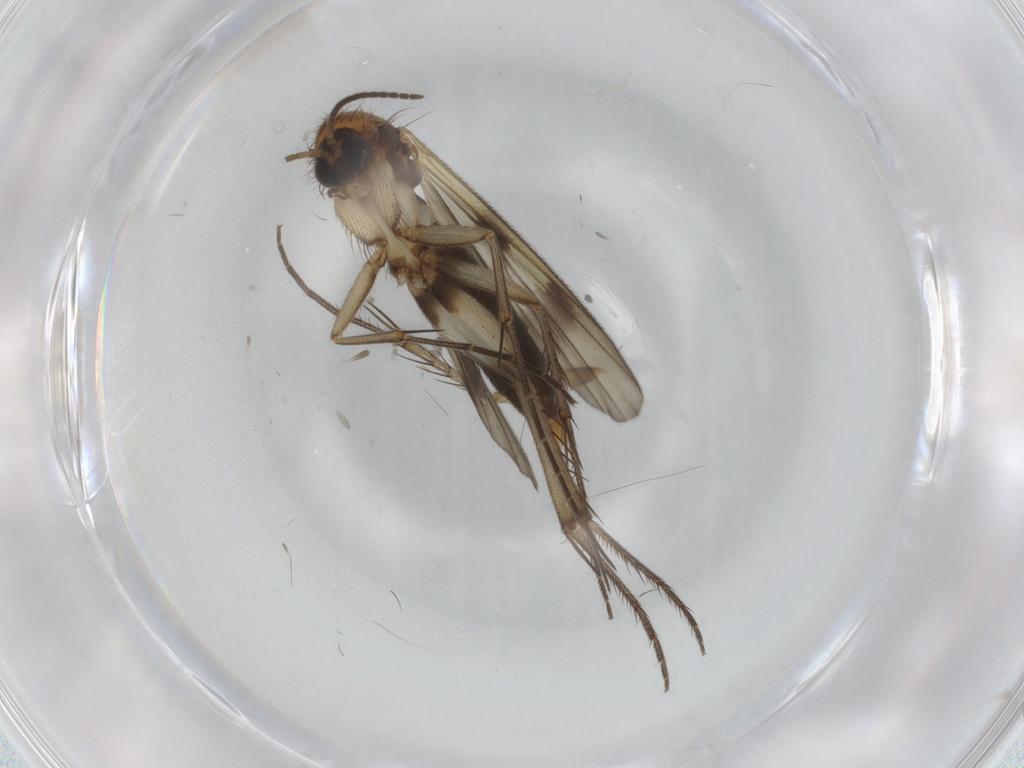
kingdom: Animalia
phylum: Arthropoda
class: Insecta
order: Diptera
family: Mycetophilidae
